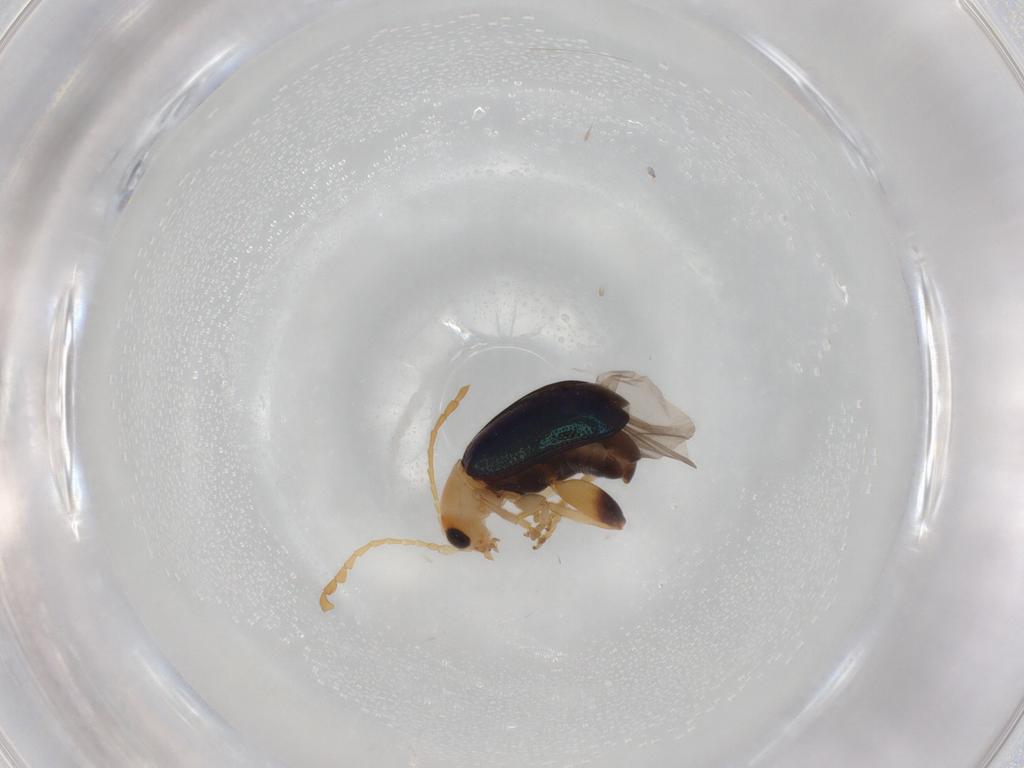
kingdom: Animalia
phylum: Arthropoda
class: Insecta
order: Coleoptera
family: Chrysomelidae
